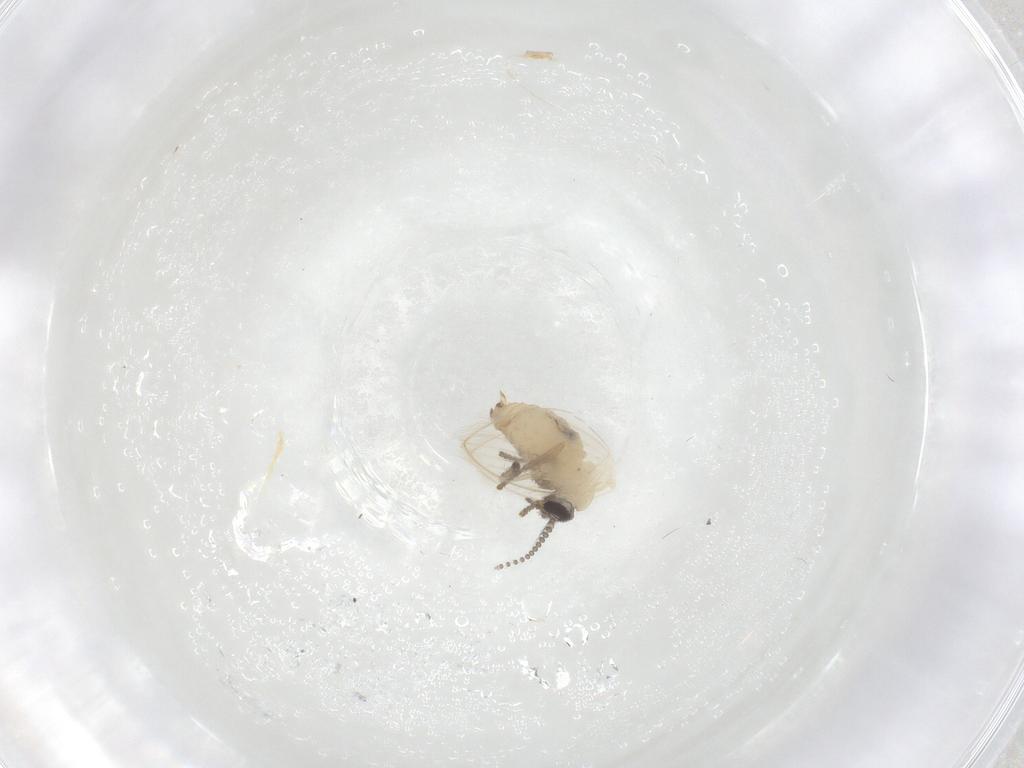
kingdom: Animalia
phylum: Arthropoda
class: Insecta
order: Diptera
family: Psychodidae
